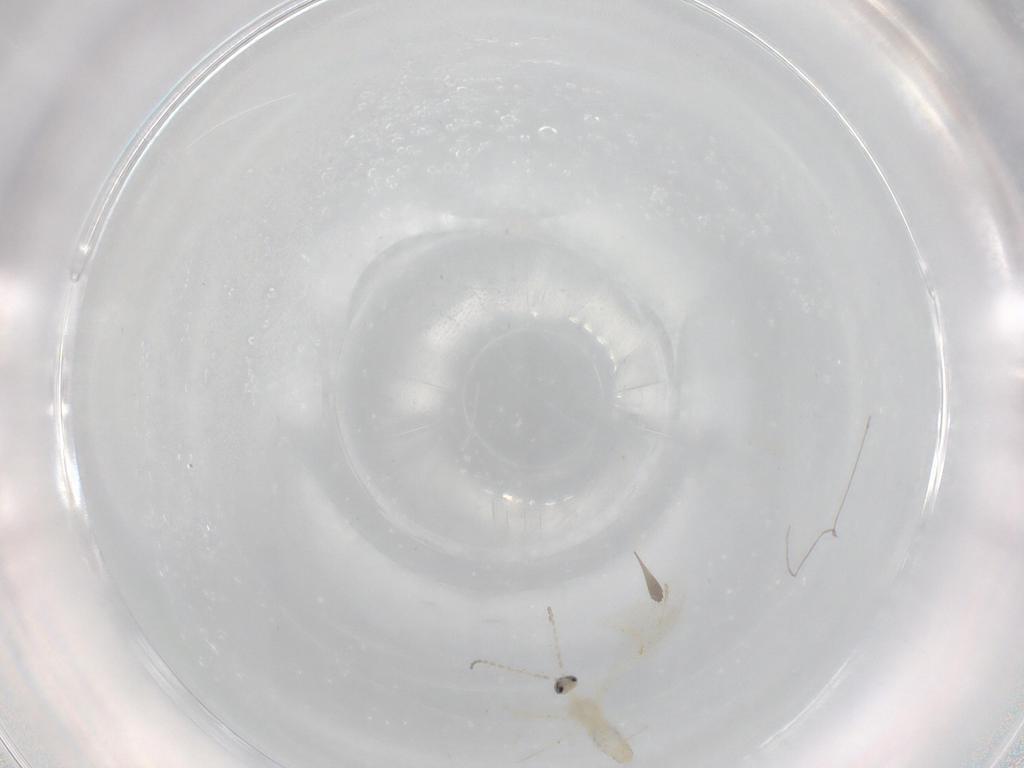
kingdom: Animalia
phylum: Arthropoda
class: Insecta
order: Diptera
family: Cecidomyiidae
